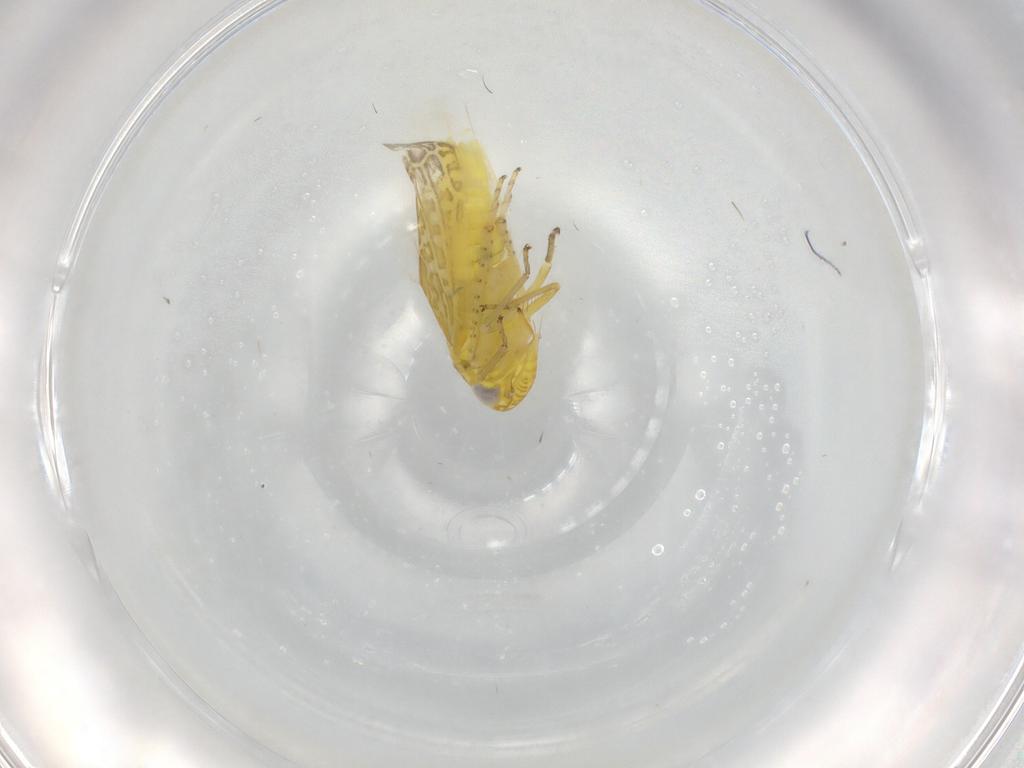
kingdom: Animalia
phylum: Arthropoda
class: Insecta
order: Hemiptera
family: Cicadellidae
